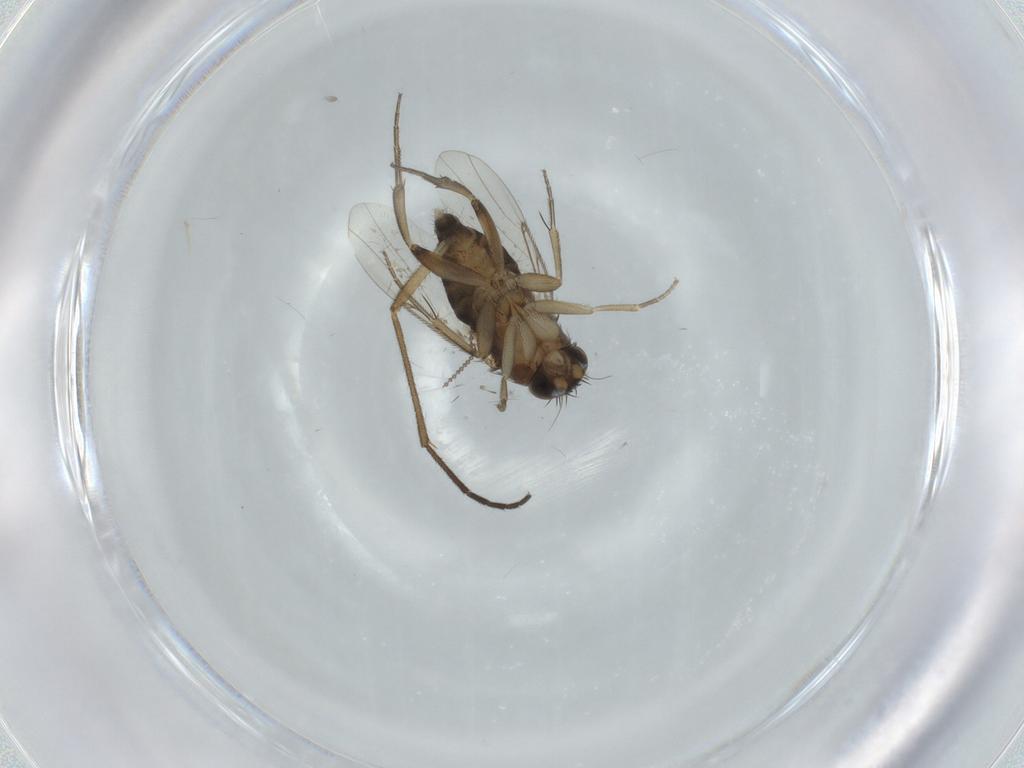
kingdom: Animalia
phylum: Arthropoda
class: Insecta
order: Diptera
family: Phoridae
